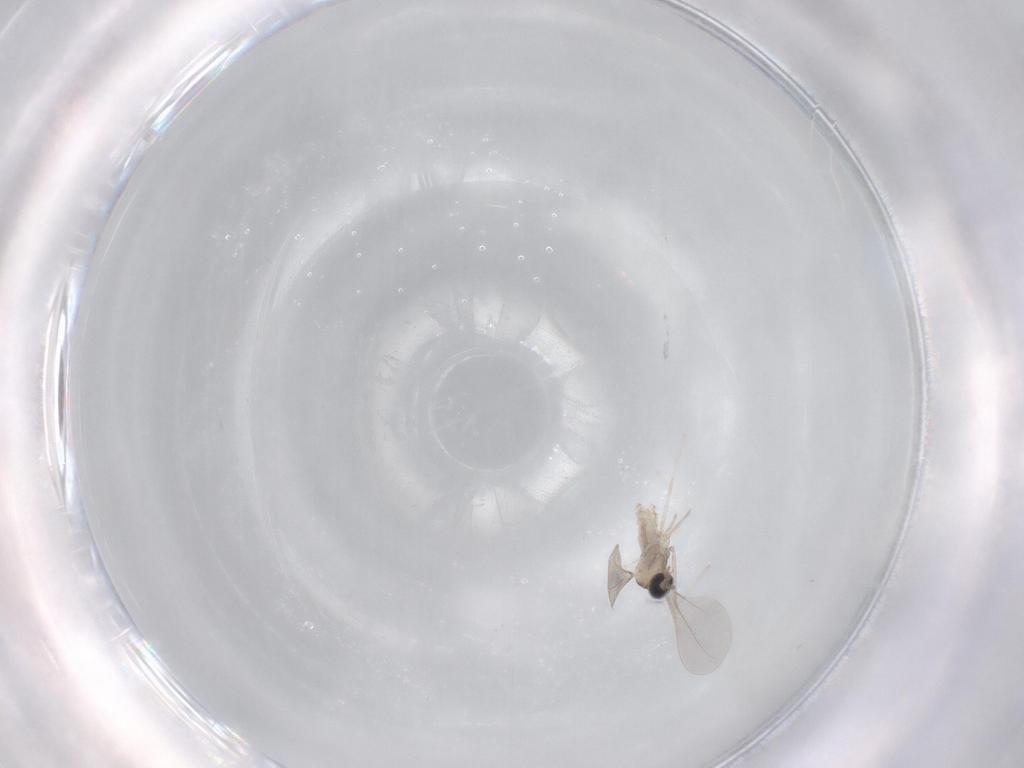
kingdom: Animalia
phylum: Arthropoda
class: Insecta
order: Diptera
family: Cecidomyiidae
